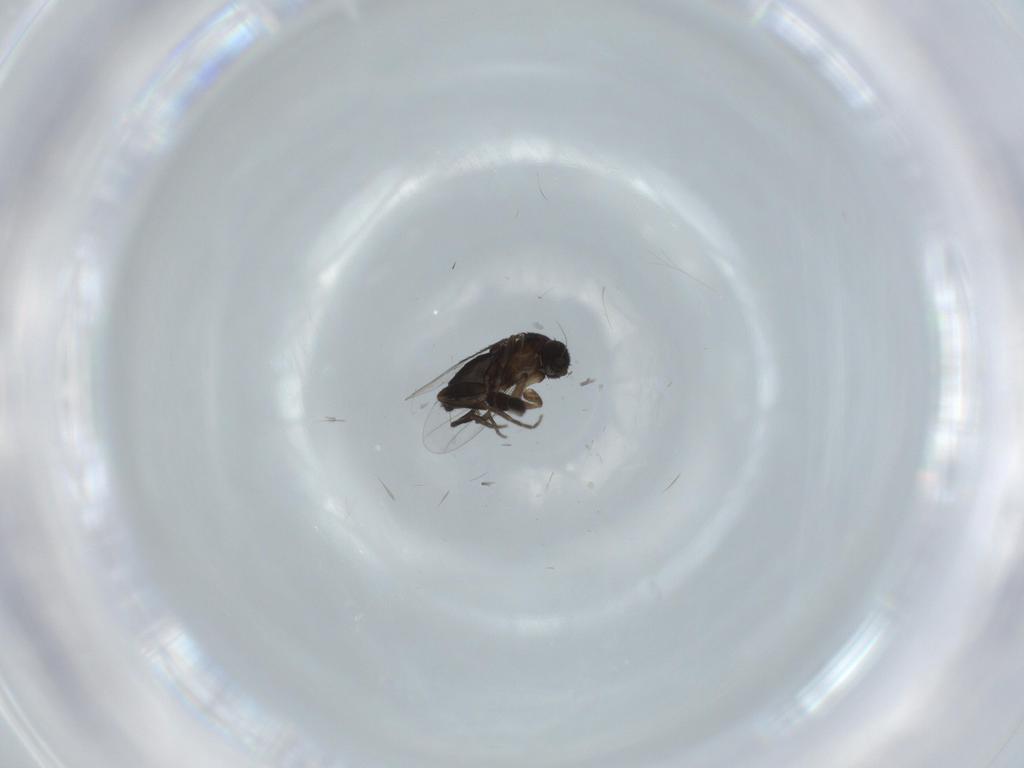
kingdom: Animalia
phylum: Arthropoda
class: Insecta
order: Diptera
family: Phoridae
